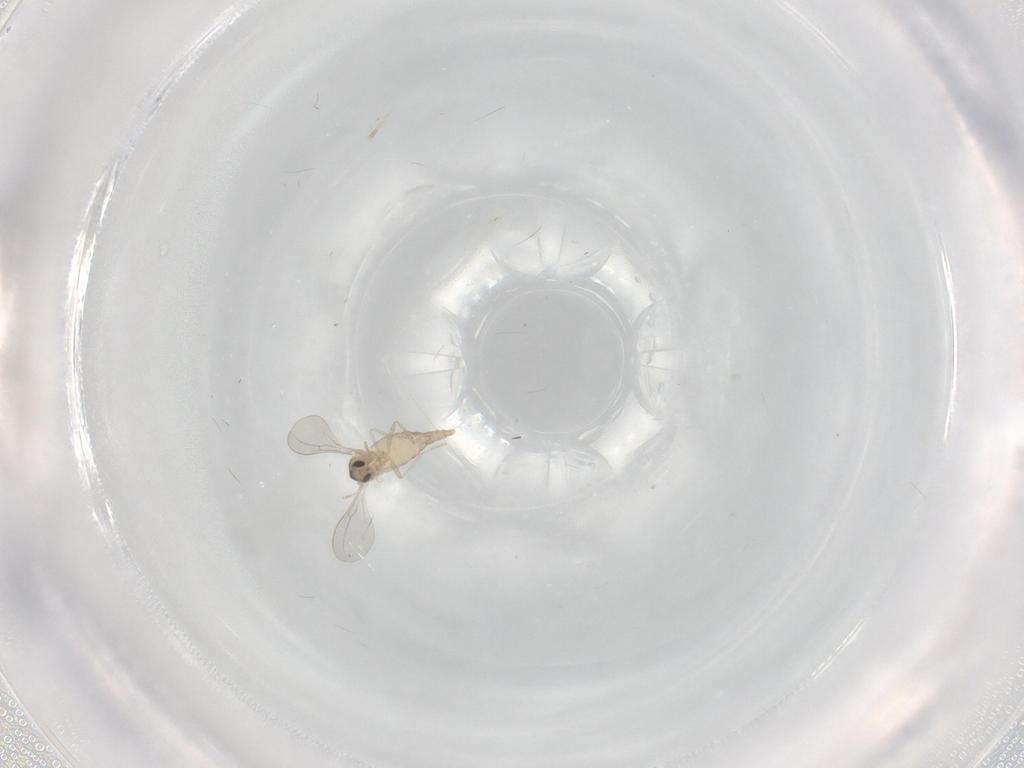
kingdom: Animalia
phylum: Arthropoda
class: Insecta
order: Diptera
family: Cecidomyiidae
